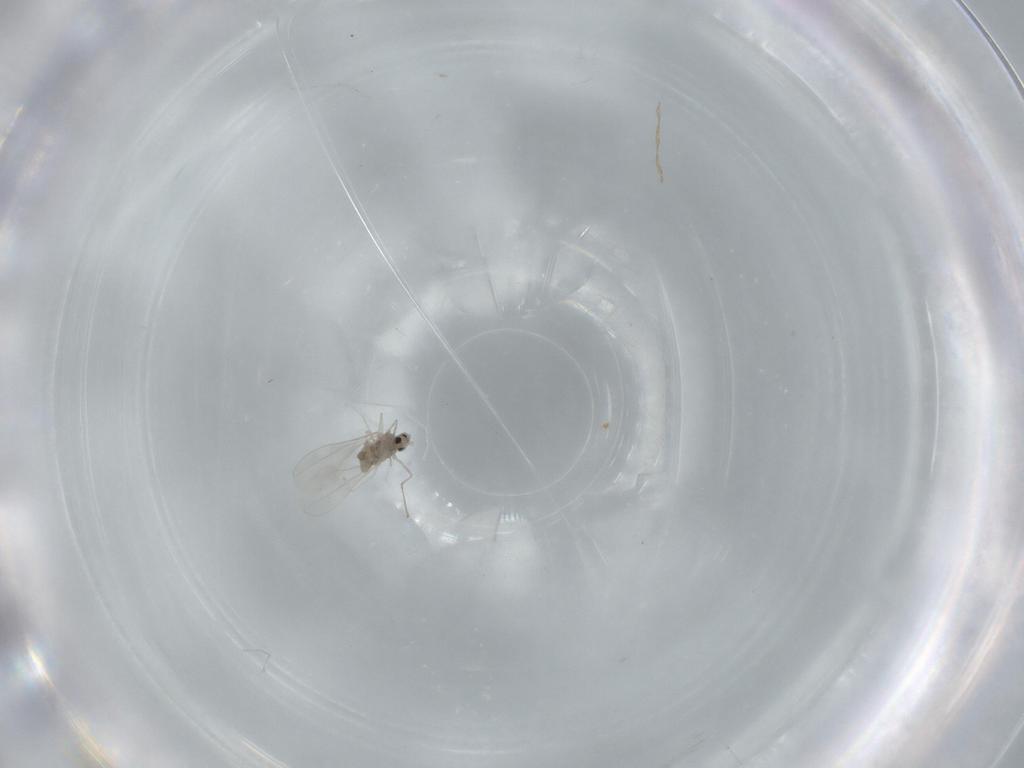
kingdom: Animalia
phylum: Arthropoda
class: Insecta
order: Diptera
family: Cecidomyiidae
